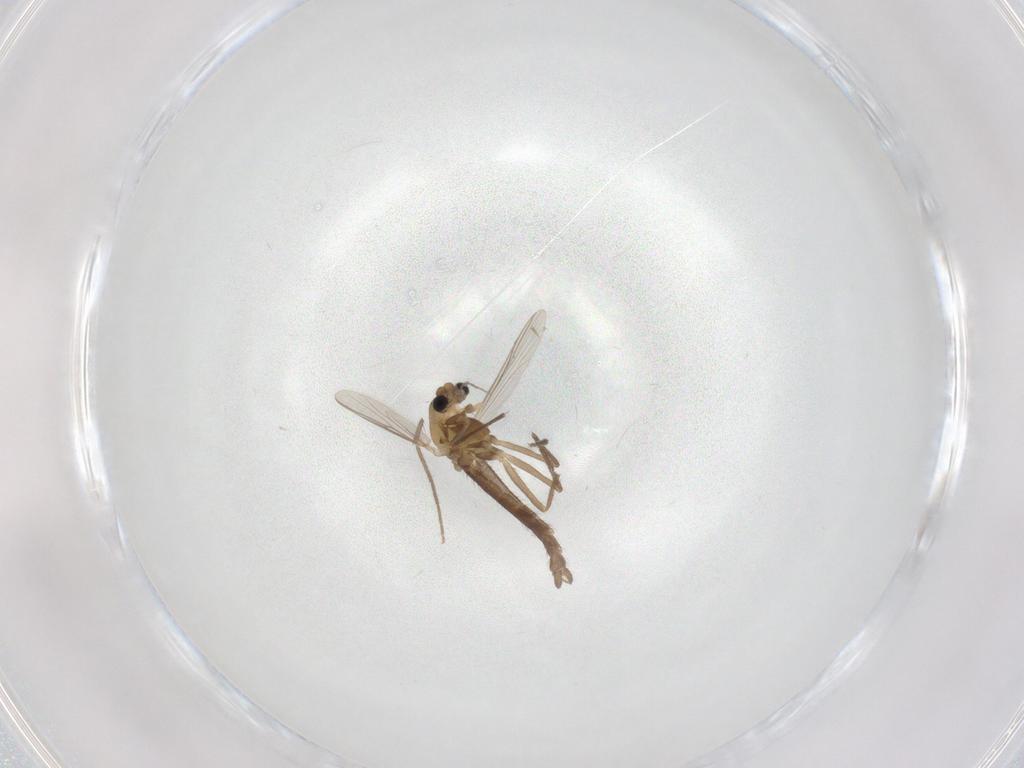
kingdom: Animalia
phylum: Arthropoda
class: Insecta
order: Diptera
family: Chironomidae
